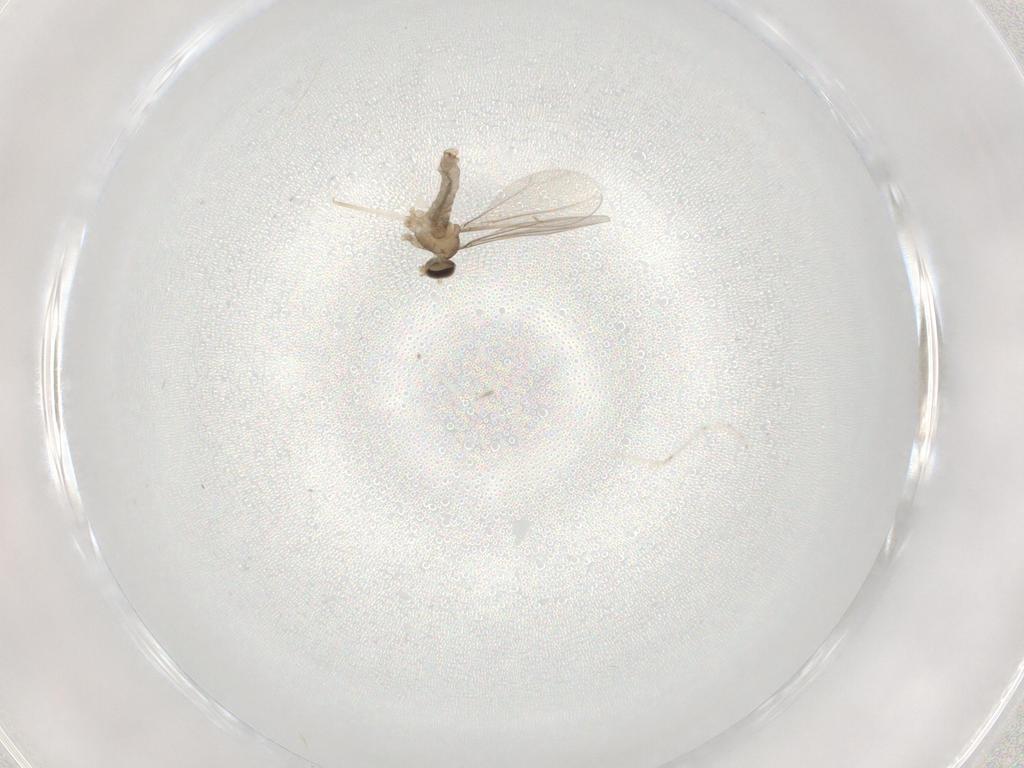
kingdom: Animalia
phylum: Arthropoda
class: Insecta
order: Diptera
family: Cecidomyiidae
